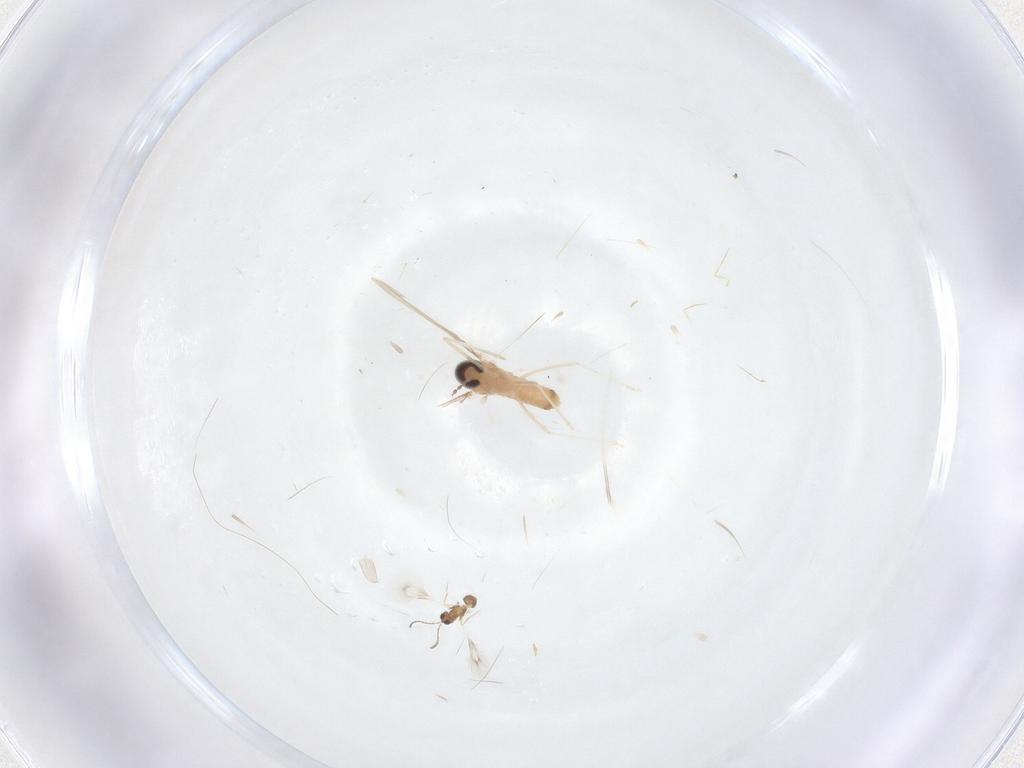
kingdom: Animalia
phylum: Arthropoda
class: Insecta
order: Diptera
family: Cecidomyiidae
